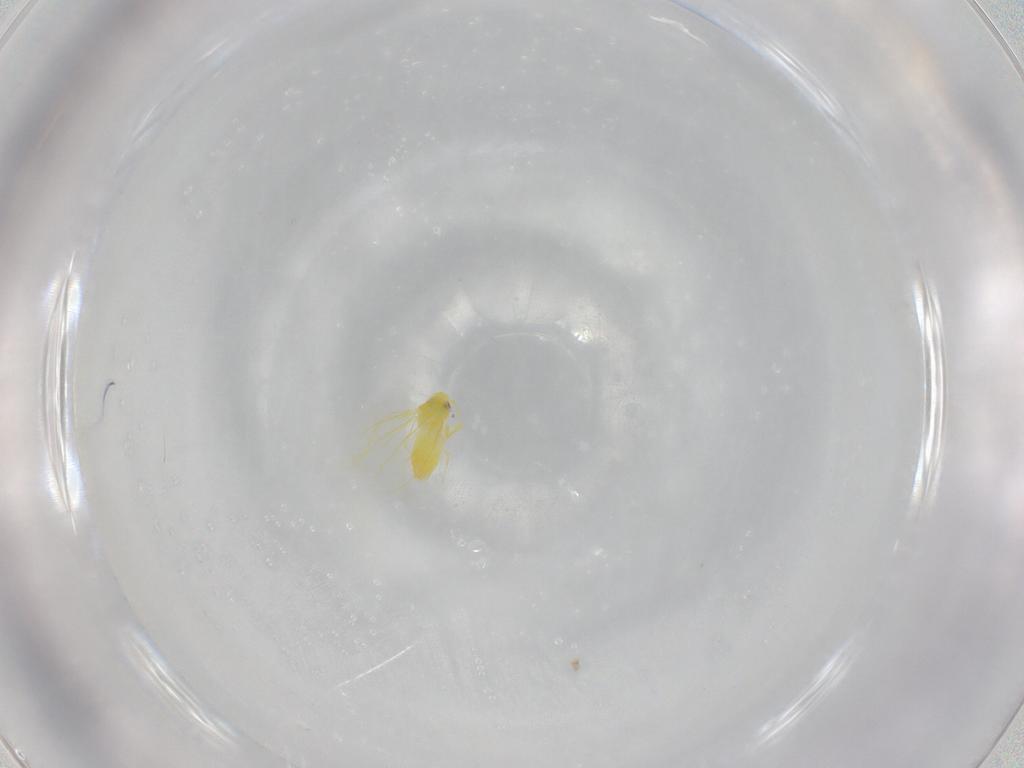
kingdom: Animalia
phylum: Arthropoda
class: Insecta
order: Hemiptera
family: Aleyrodidae
